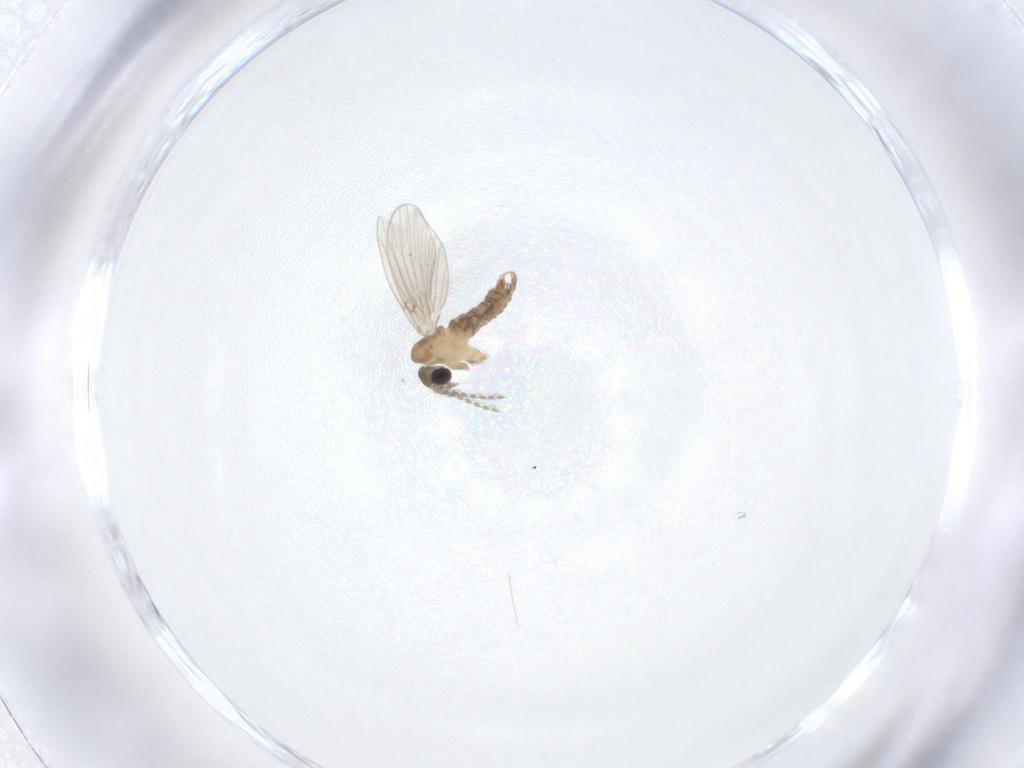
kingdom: Animalia
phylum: Arthropoda
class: Insecta
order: Diptera
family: Psychodidae
